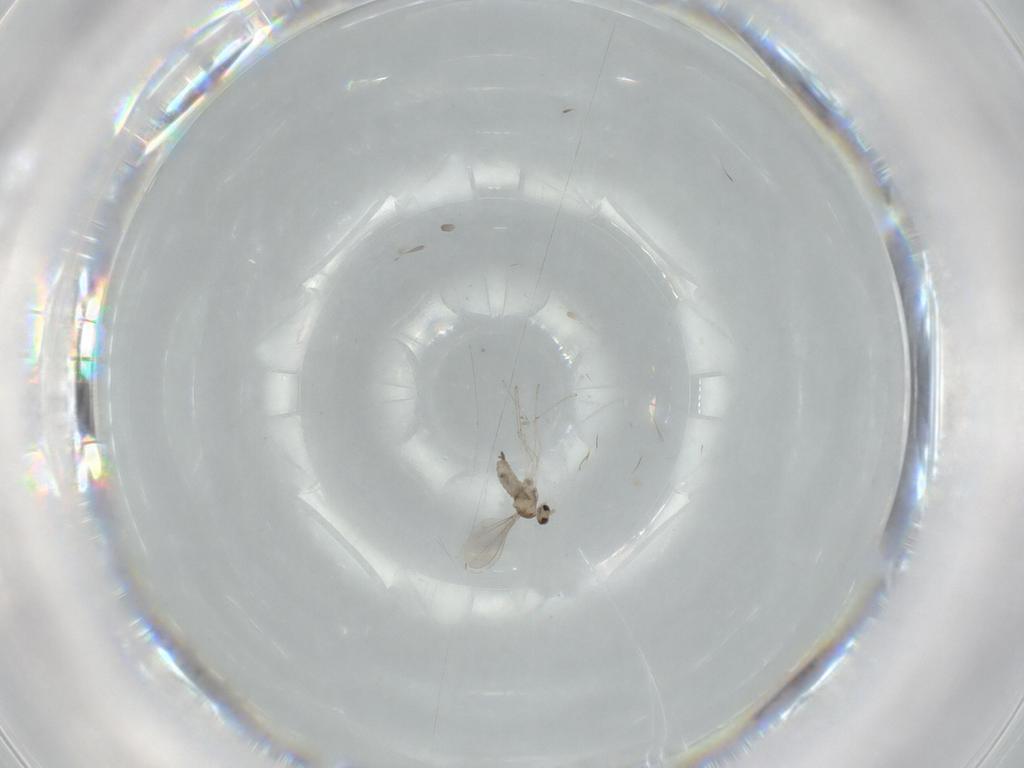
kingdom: Animalia
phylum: Arthropoda
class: Insecta
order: Diptera
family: Cecidomyiidae
